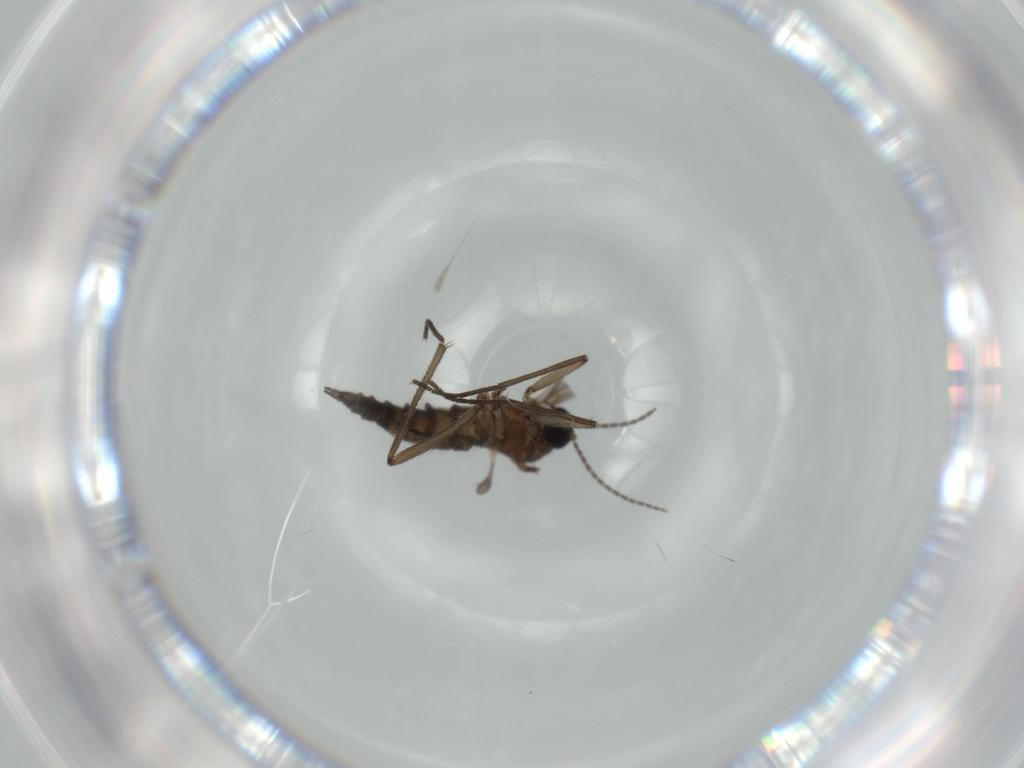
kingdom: Animalia
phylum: Arthropoda
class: Insecta
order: Diptera
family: Sciaridae
